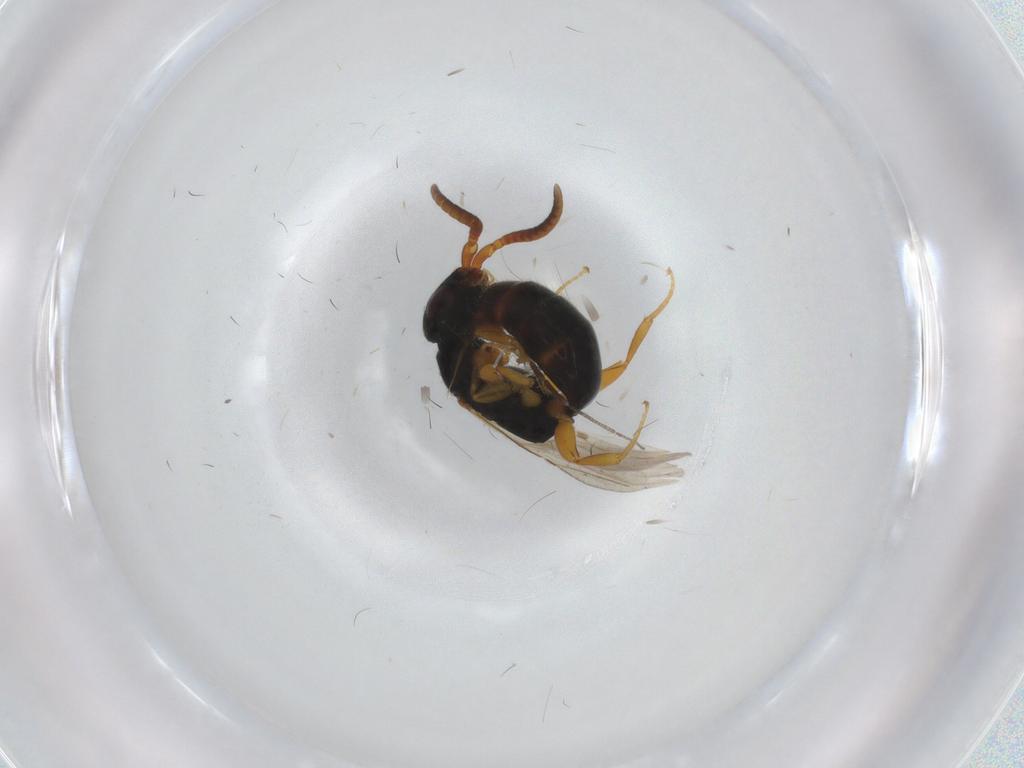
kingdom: Animalia
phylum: Arthropoda
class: Insecta
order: Hymenoptera
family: Bethylidae
